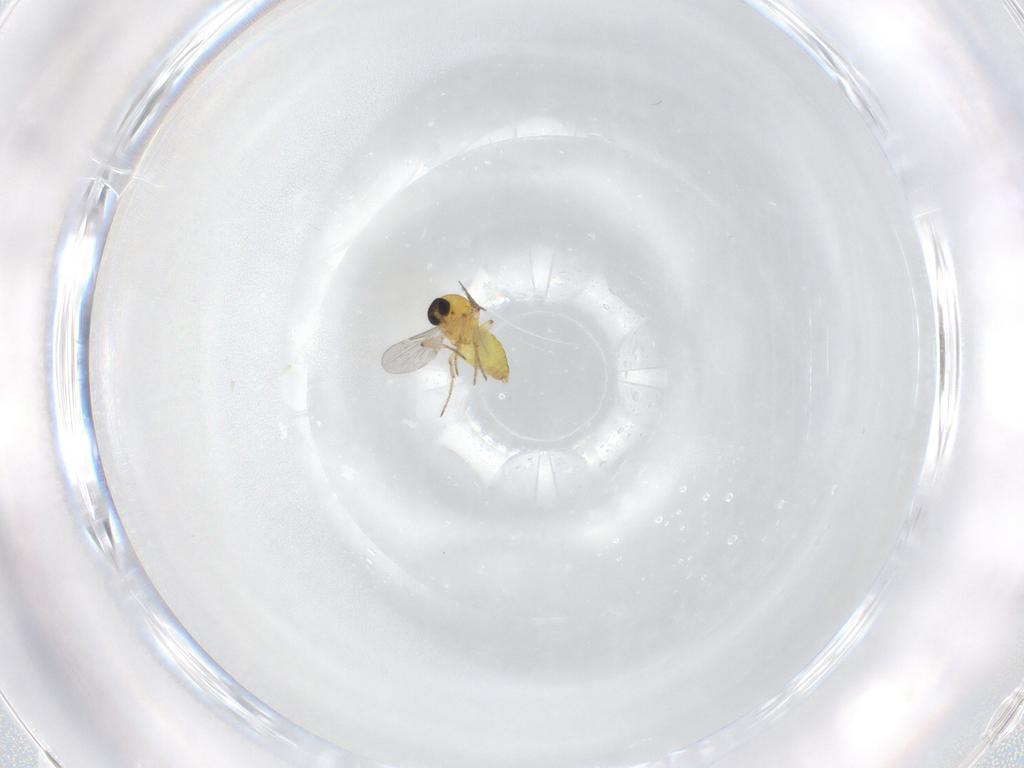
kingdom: Animalia
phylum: Arthropoda
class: Insecta
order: Diptera
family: Ceratopogonidae
